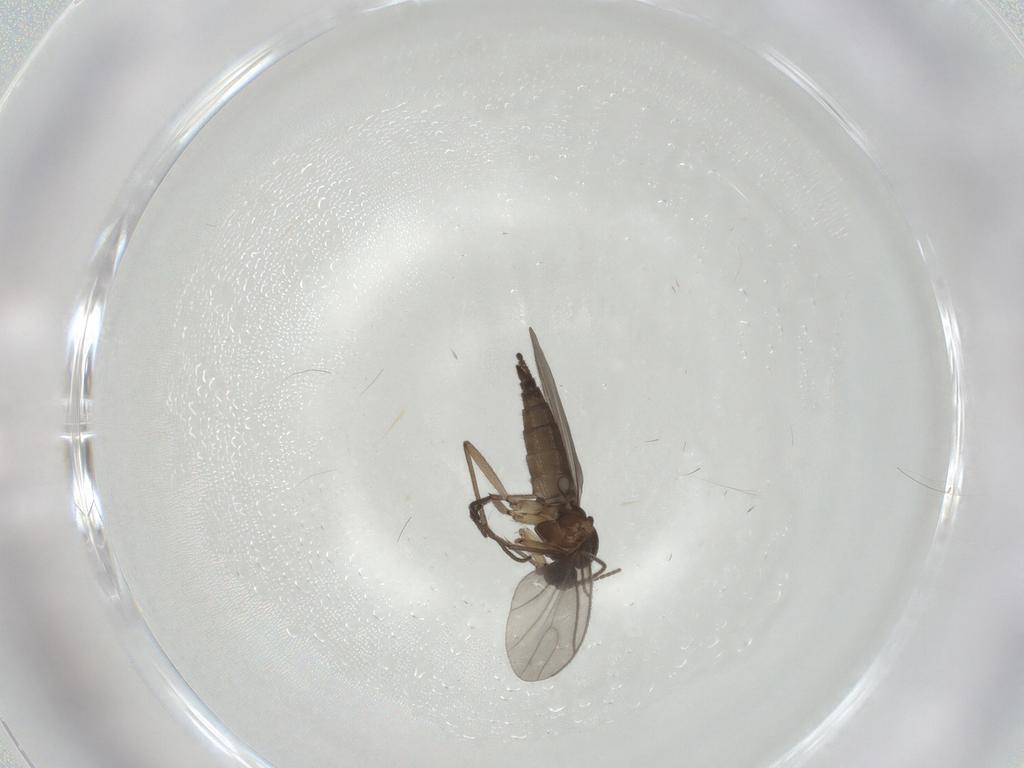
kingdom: Animalia
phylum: Arthropoda
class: Insecta
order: Diptera
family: Sciaridae
